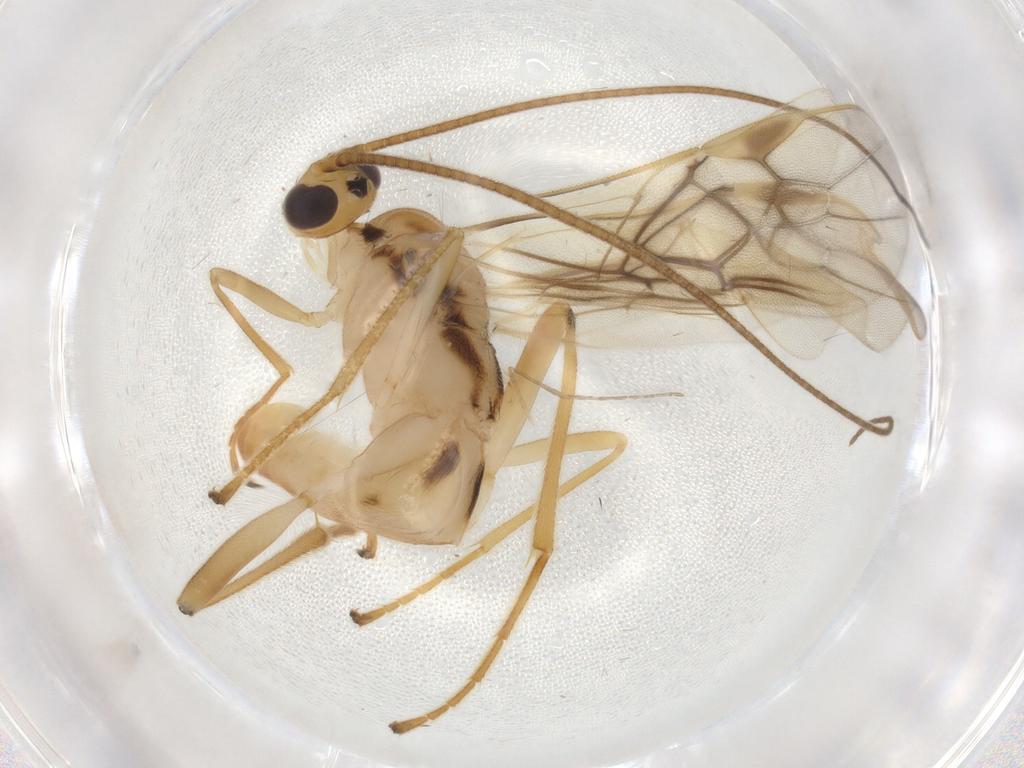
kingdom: Animalia
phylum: Arthropoda
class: Insecta
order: Hymenoptera
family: Braconidae
